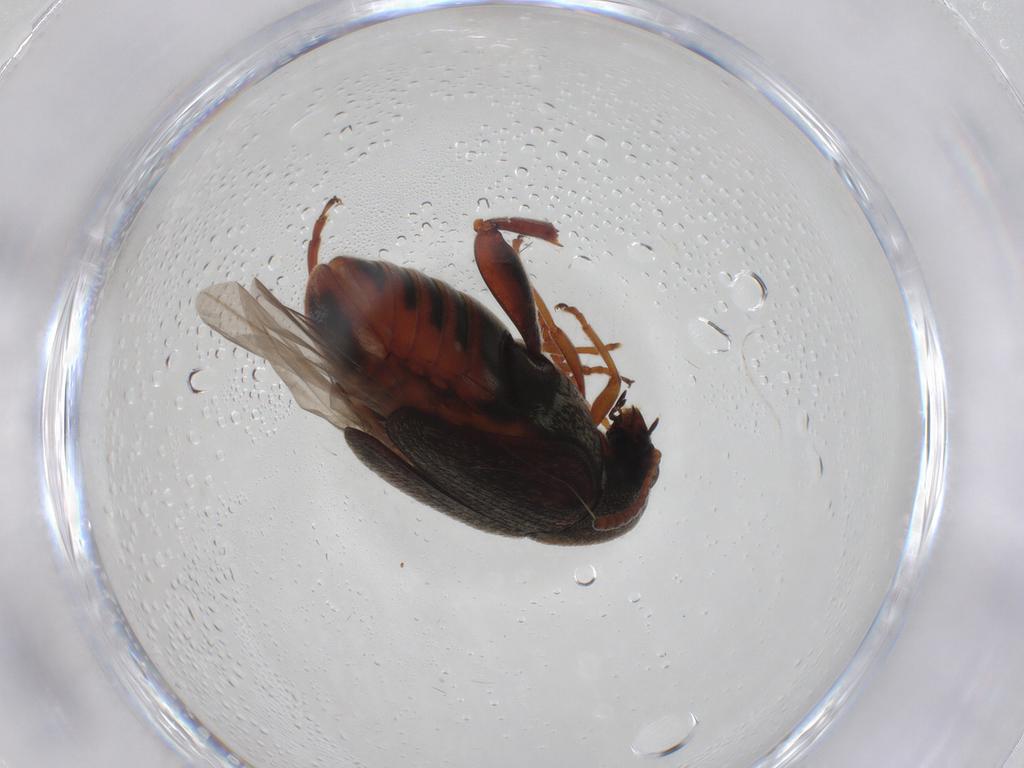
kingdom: Animalia
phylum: Arthropoda
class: Insecta
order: Coleoptera
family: Chrysomelidae
